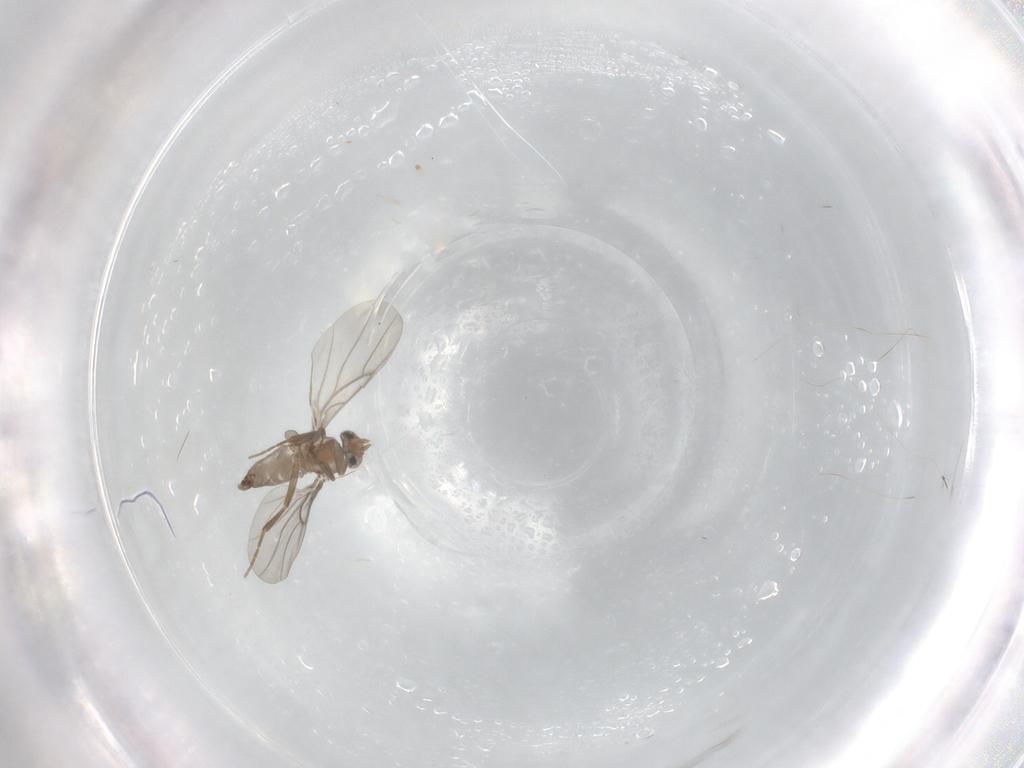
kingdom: Animalia
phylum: Arthropoda
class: Insecta
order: Diptera
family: Chironomidae
